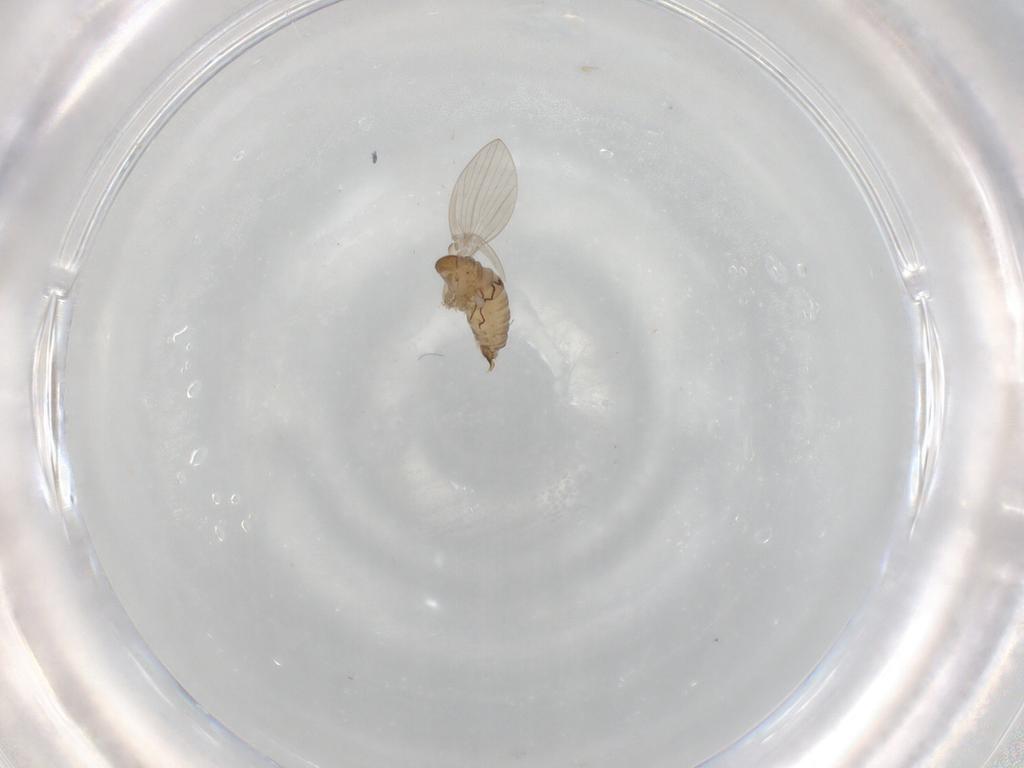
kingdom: Animalia
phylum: Arthropoda
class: Insecta
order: Diptera
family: Psychodidae
